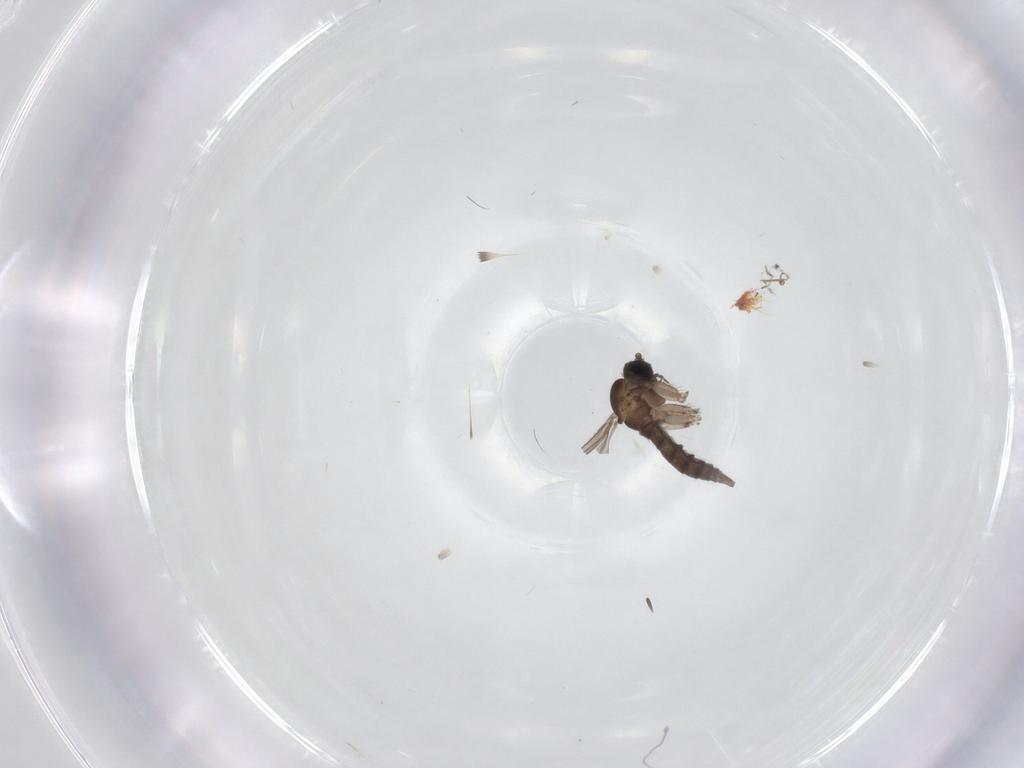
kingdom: Animalia
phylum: Arthropoda
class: Insecta
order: Diptera
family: Sciaridae
